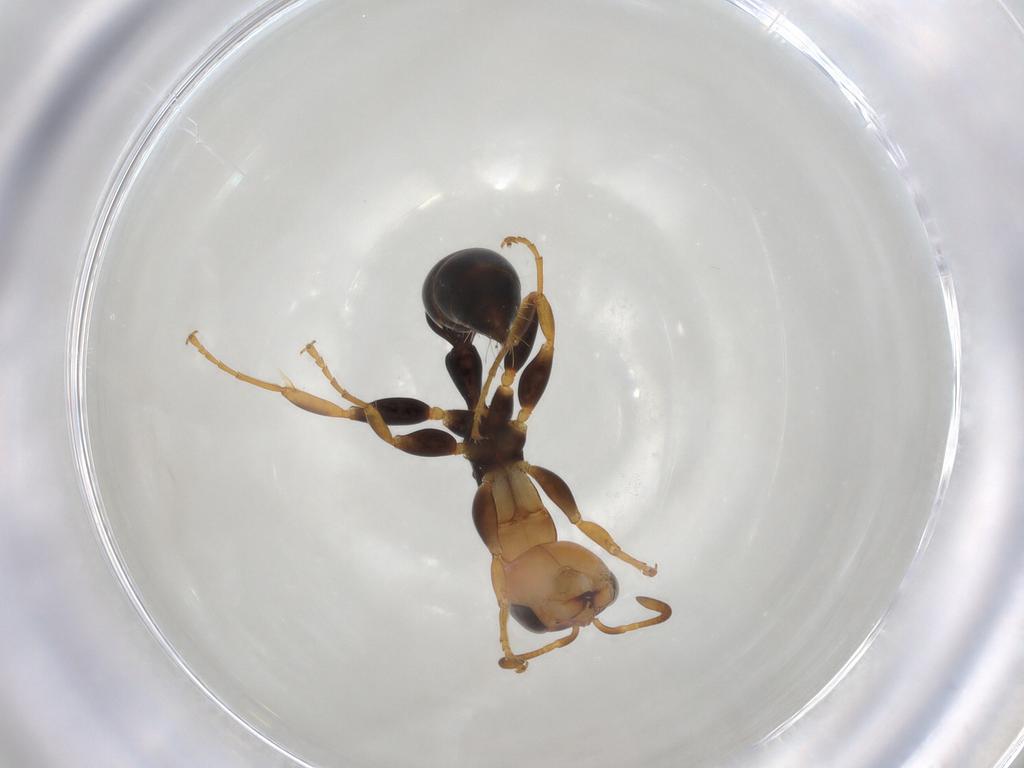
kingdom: Animalia
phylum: Arthropoda
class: Insecta
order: Hymenoptera
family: Formicidae
